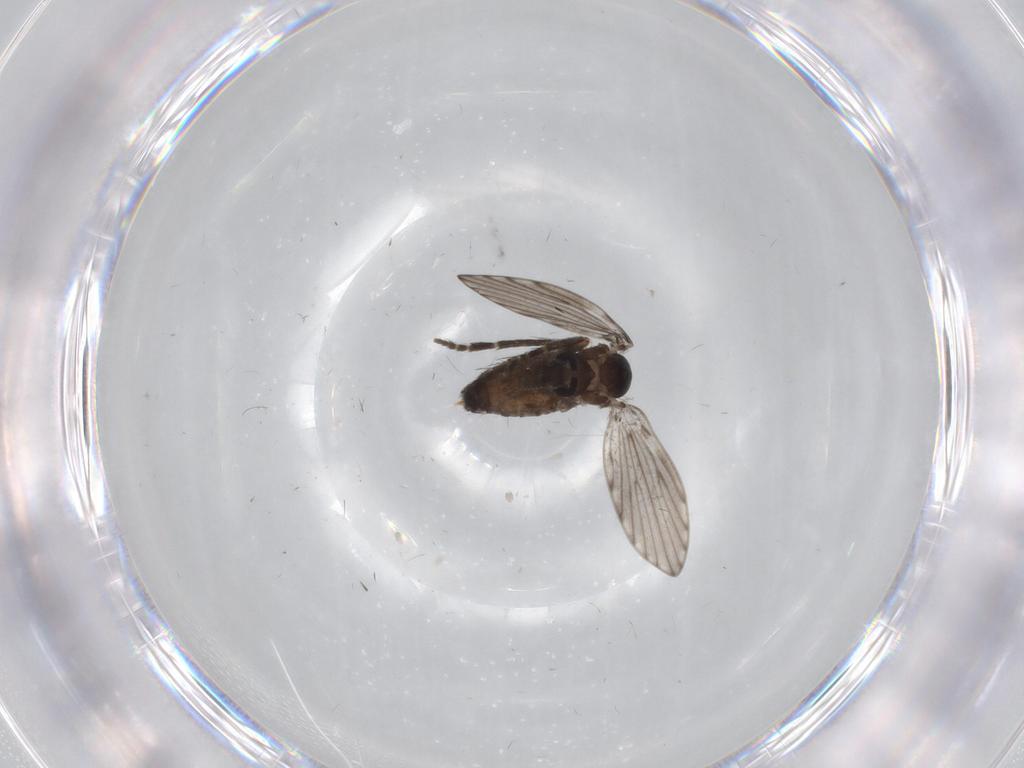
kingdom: Animalia
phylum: Arthropoda
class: Insecta
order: Diptera
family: Psychodidae
